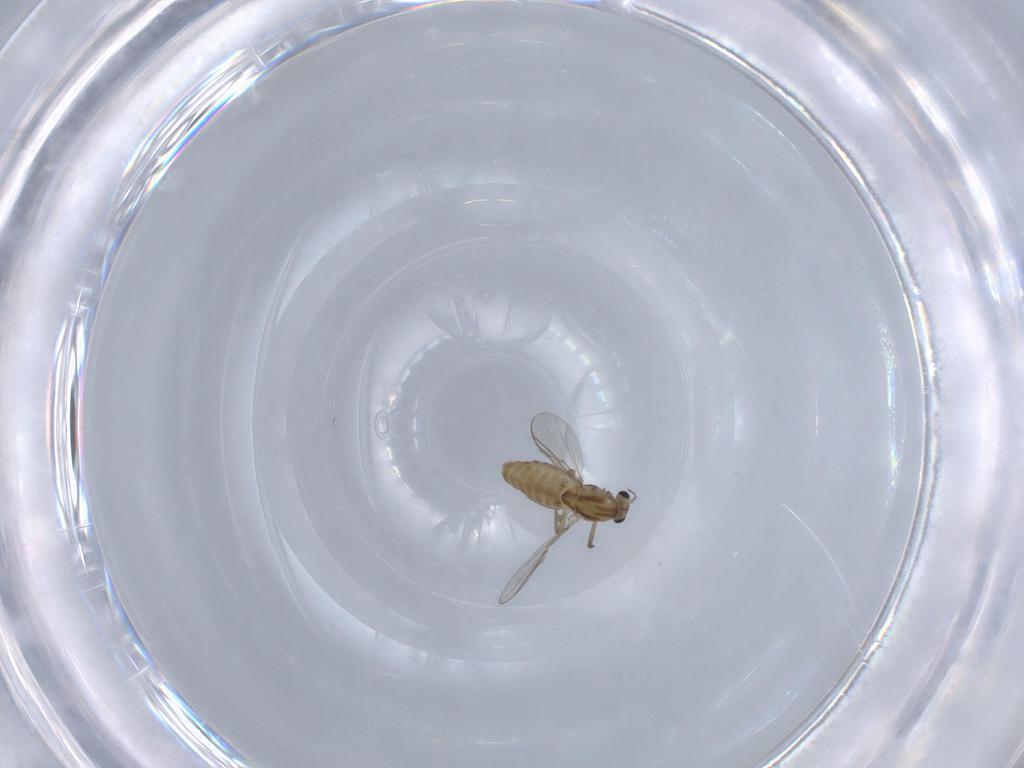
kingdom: Animalia
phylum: Arthropoda
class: Insecta
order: Diptera
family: Chironomidae
